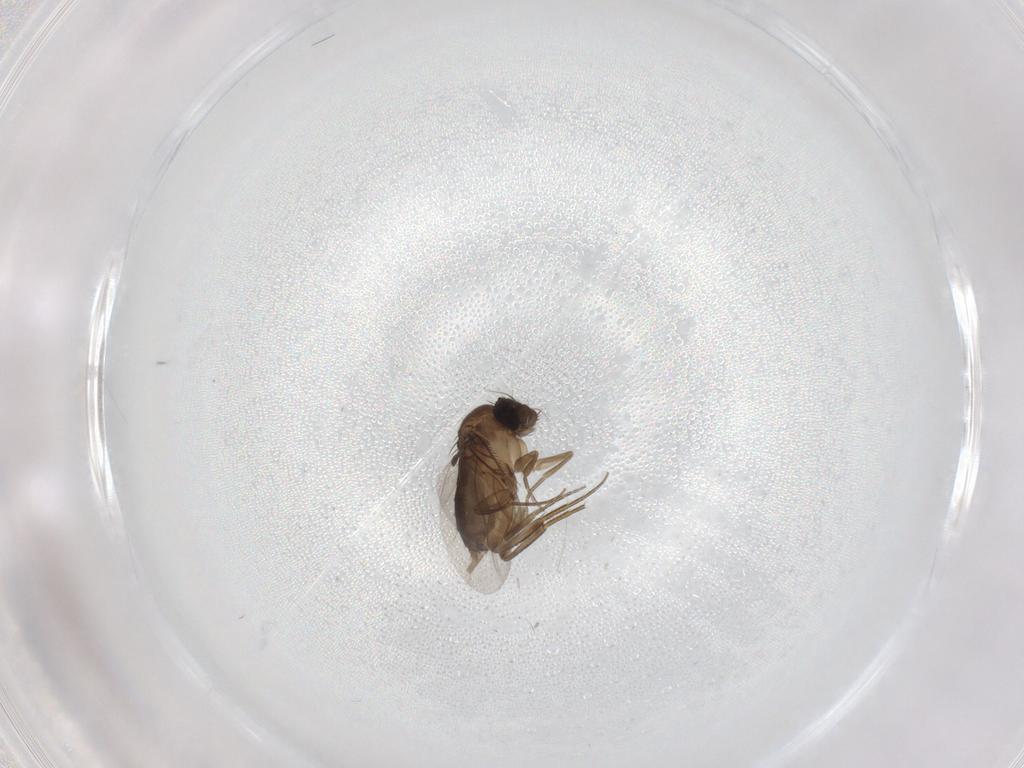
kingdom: Animalia
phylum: Arthropoda
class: Insecta
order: Diptera
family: Phoridae
